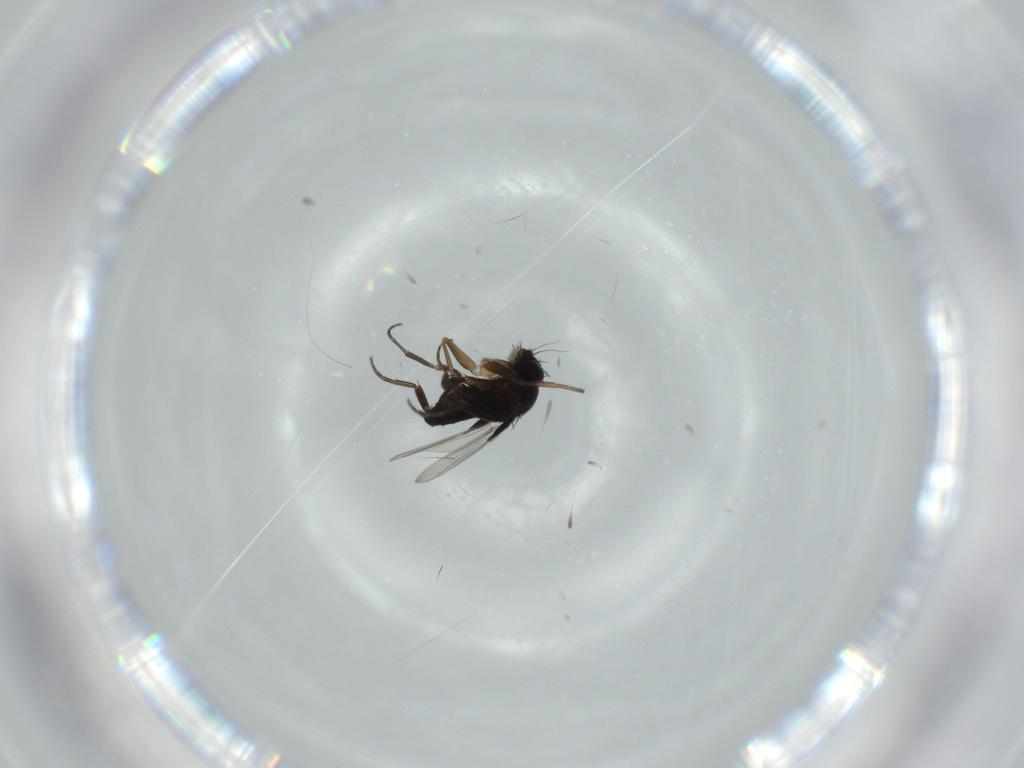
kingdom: Animalia
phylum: Arthropoda
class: Insecta
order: Diptera
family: Phoridae
